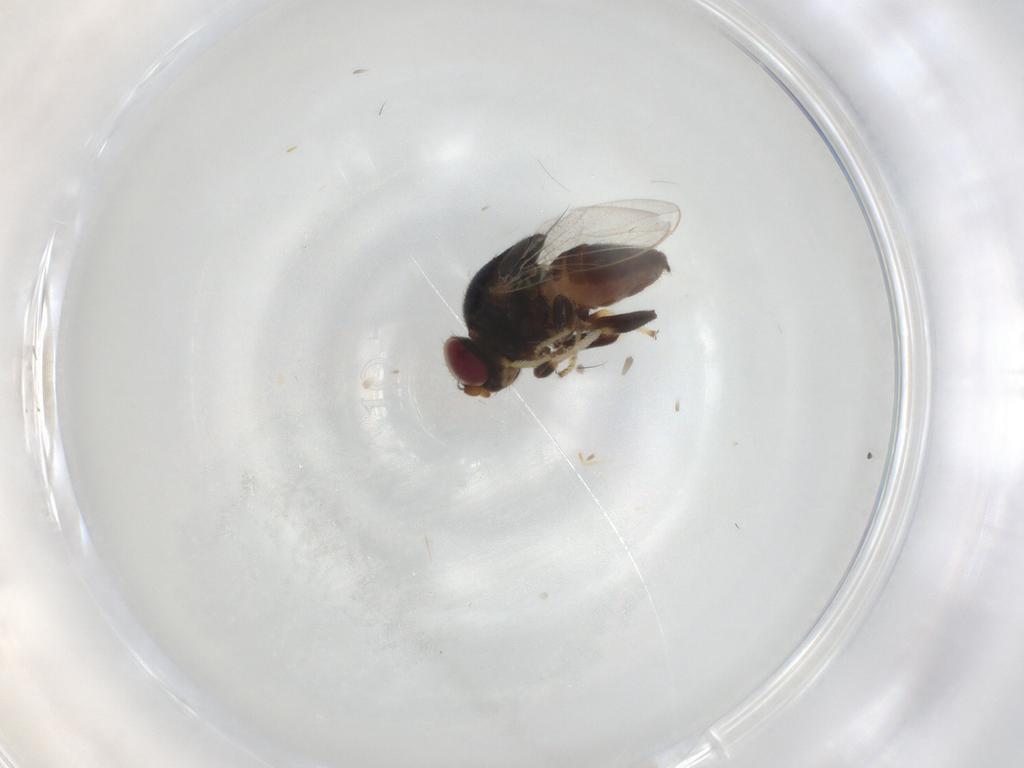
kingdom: Animalia
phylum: Arthropoda
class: Insecta
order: Diptera
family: Chloropidae
